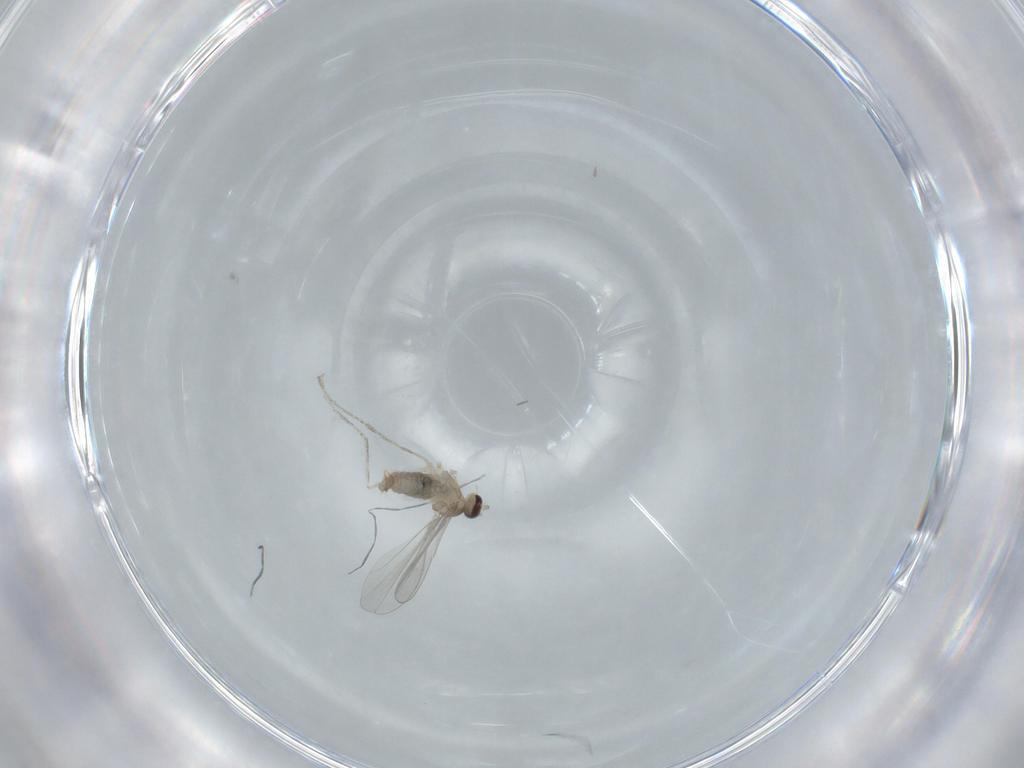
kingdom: Animalia
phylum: Arthropoda
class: Insecta
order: Diptera
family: Cecidomyiidae
